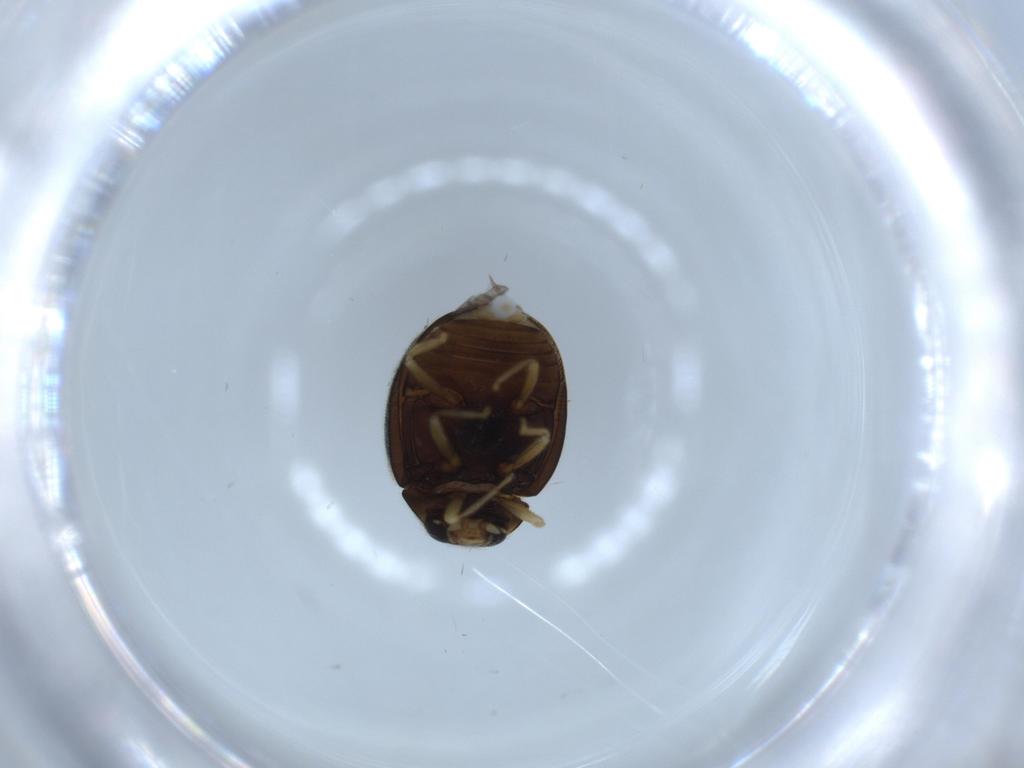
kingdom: Animalia
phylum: Arthropoda
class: Insecta
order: Coleoptera
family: Coccinellidae
